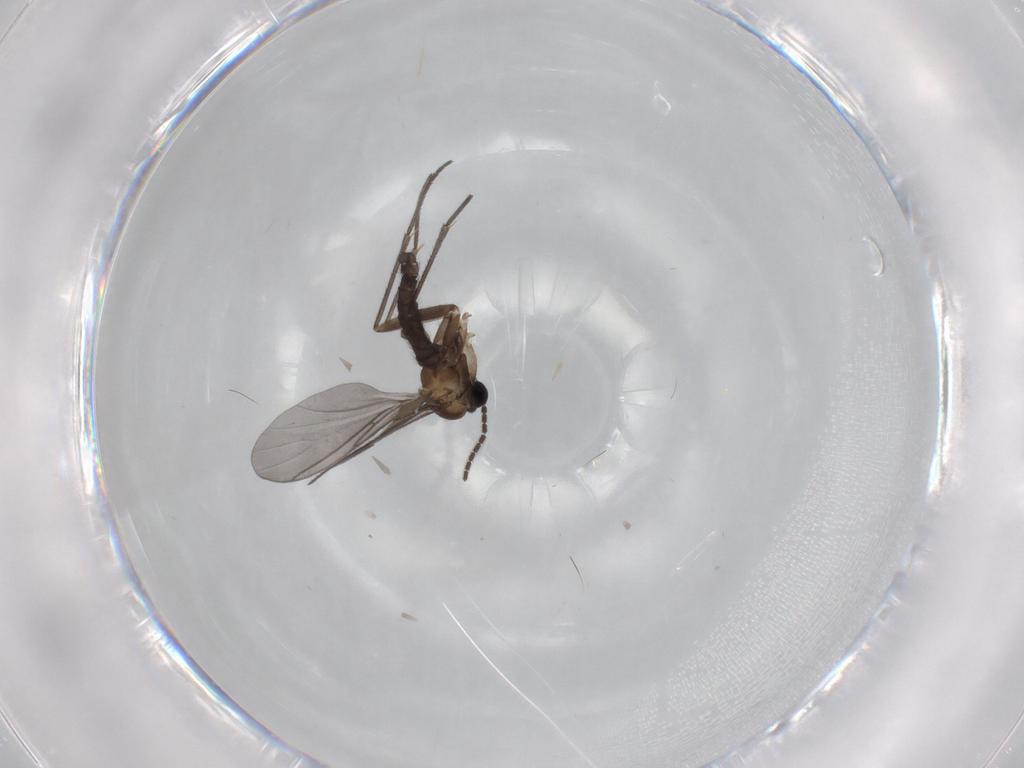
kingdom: Animalia
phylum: Arthropoda
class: Insecta
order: Diptera
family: Sciaridae
